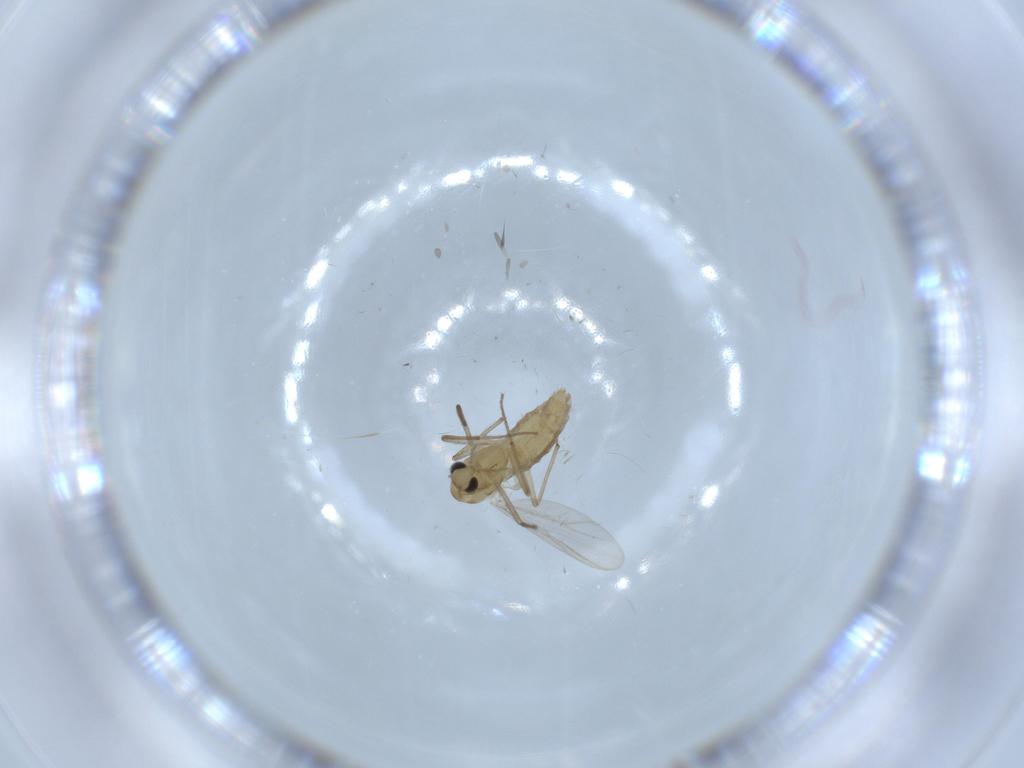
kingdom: Animalia
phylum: Arthropoda
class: Insecta
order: Diptera
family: Chironomidae
